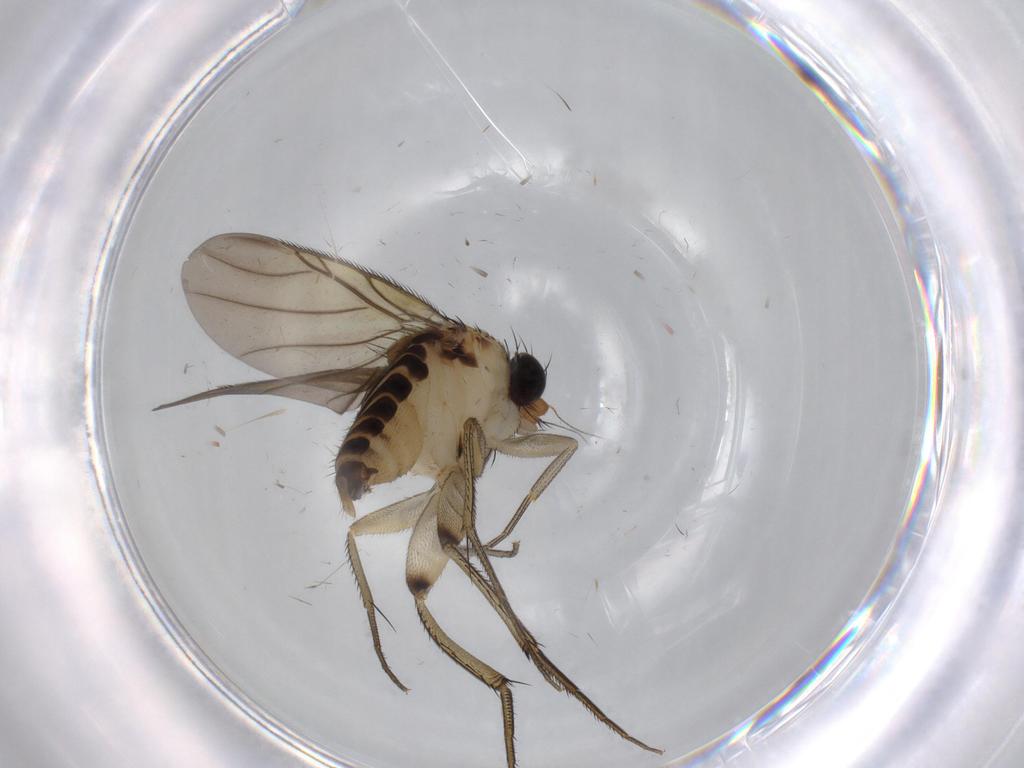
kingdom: Animalia
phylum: Arthropoda
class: Insecta
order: Diptera
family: Phoridae
